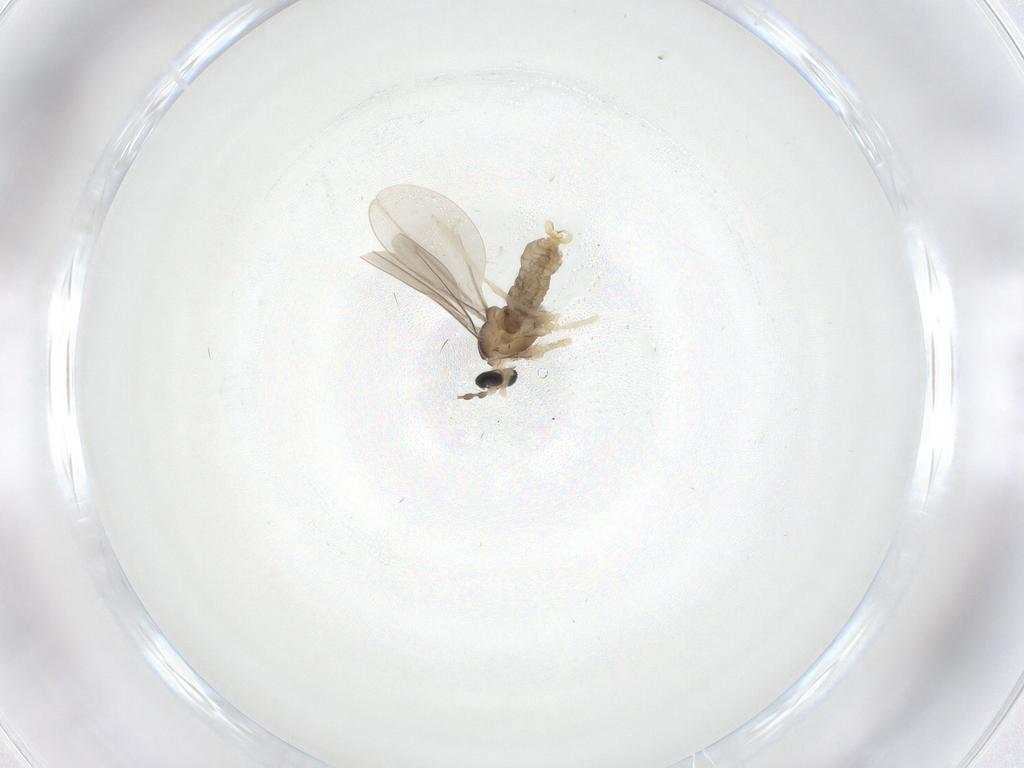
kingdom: Animalia
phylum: Arthropoda
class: Insecta
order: Diptera
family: Cecidomyiidae
